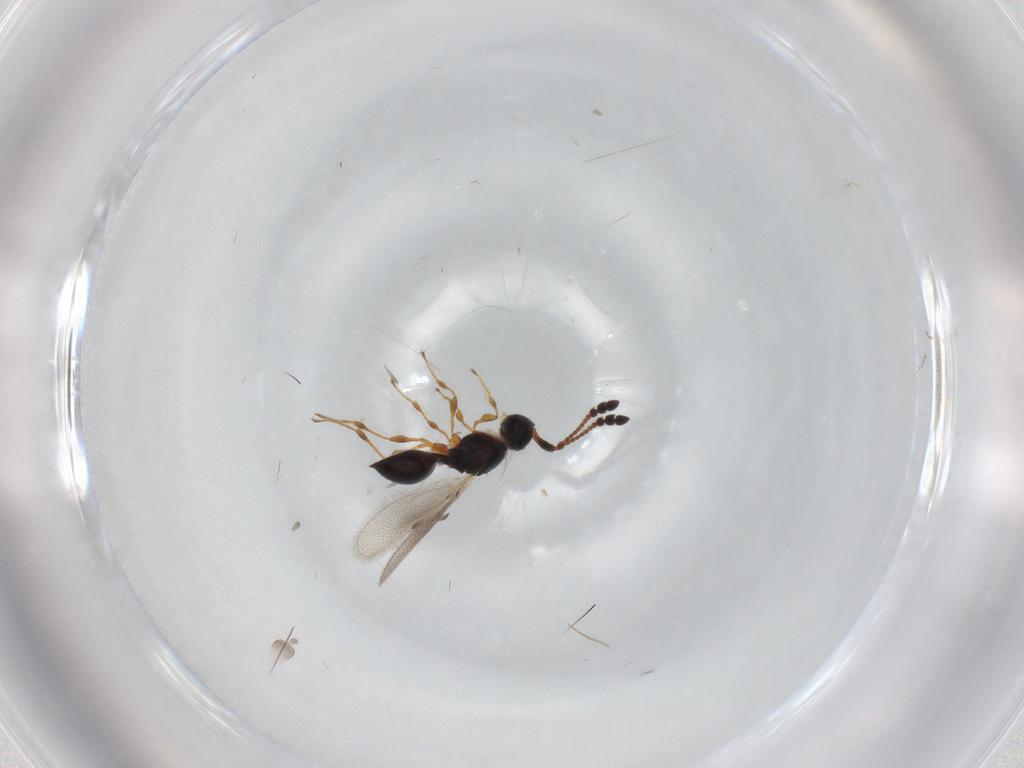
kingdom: Animalia
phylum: Arthropoda
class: Insecta
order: Hymenoptera
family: Diapriidae
